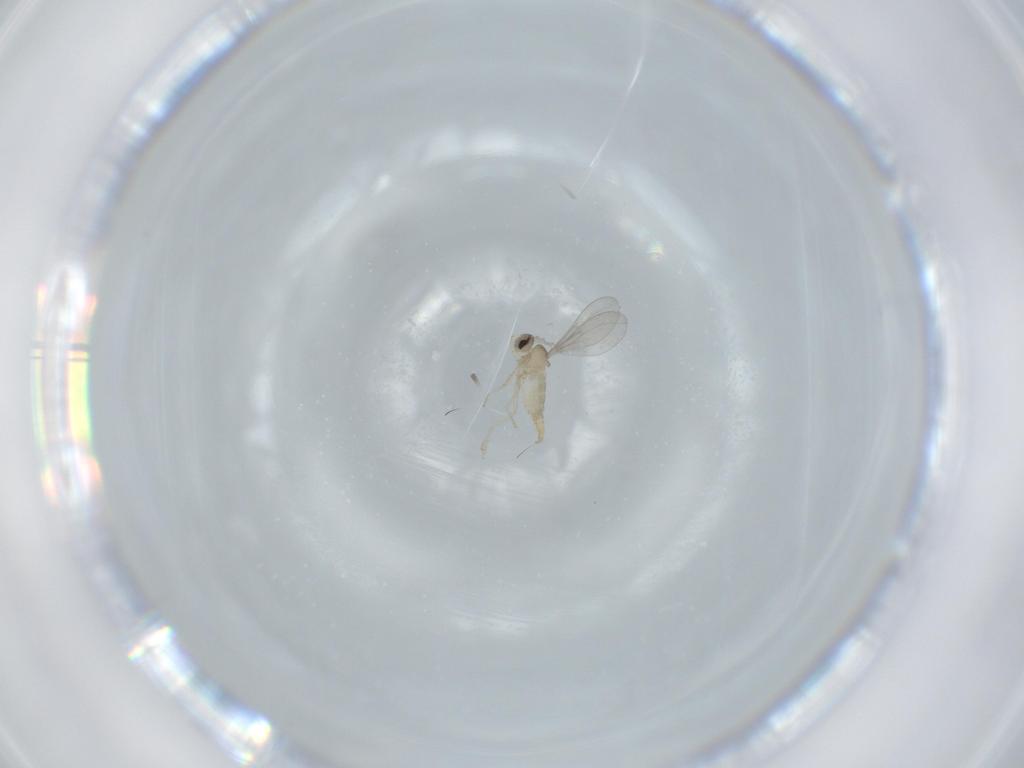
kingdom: Animalia
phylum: Arthropoda
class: Insecta
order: Diptera
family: Cecidomyiidae
